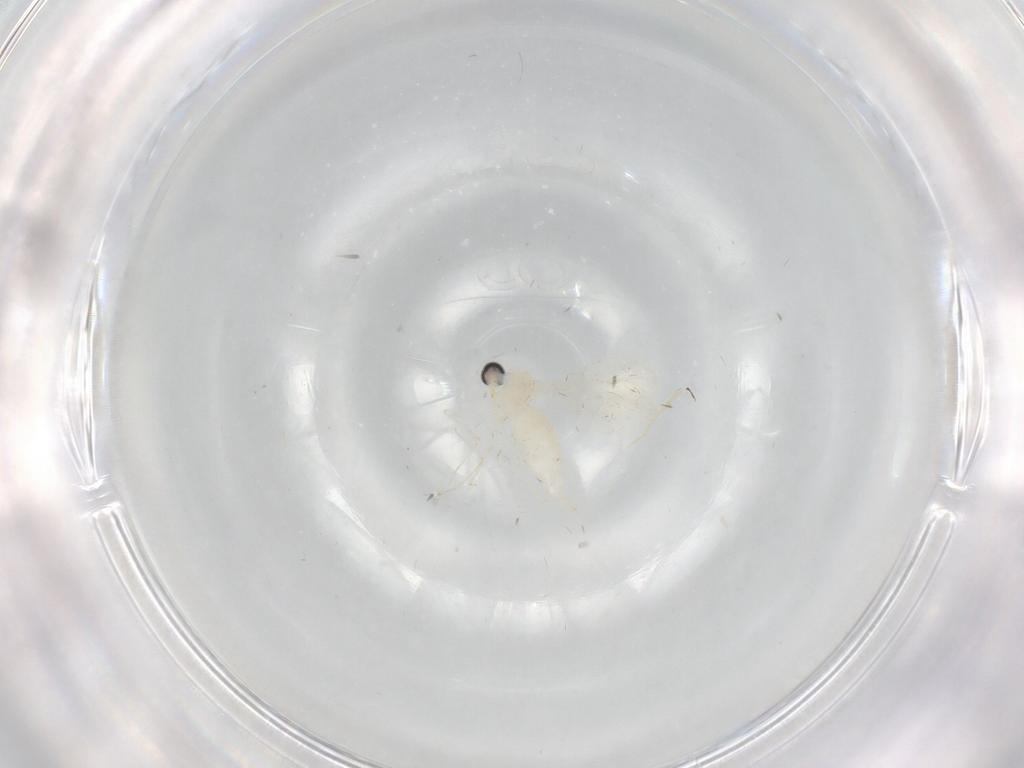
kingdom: Animalia
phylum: Arthropoda
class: Insecta
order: Diptera
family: Cecidomyiidae
